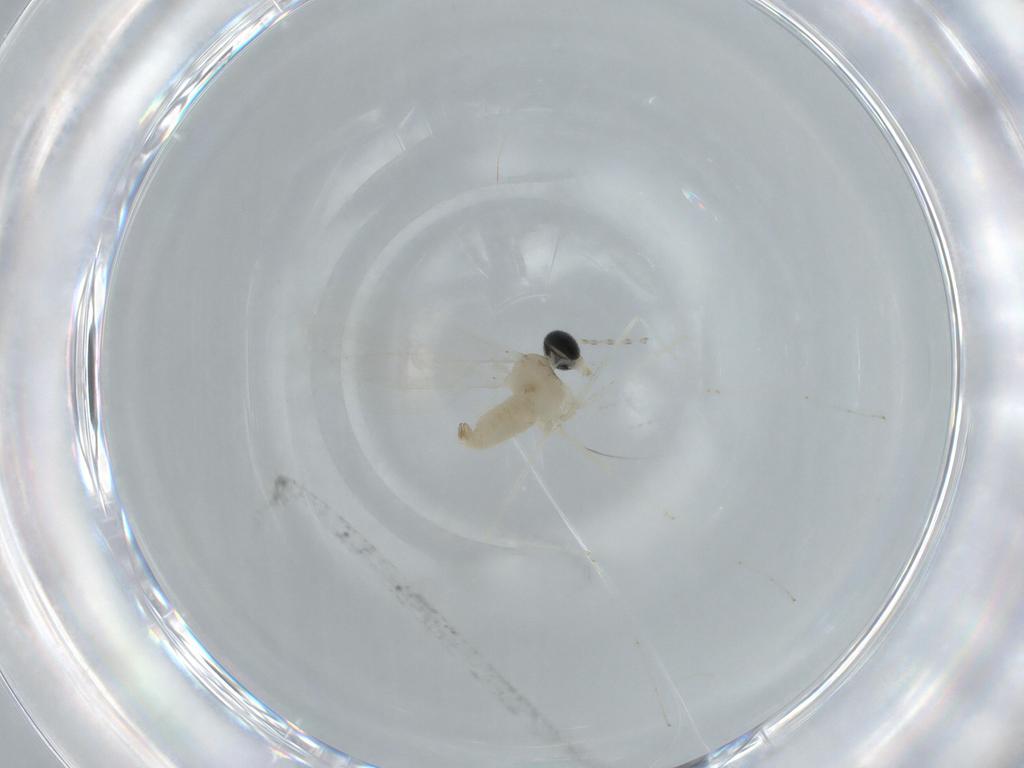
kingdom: Animalia
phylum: Arthropoda
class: Insecta
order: Diptera
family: Cecidomyiidae
